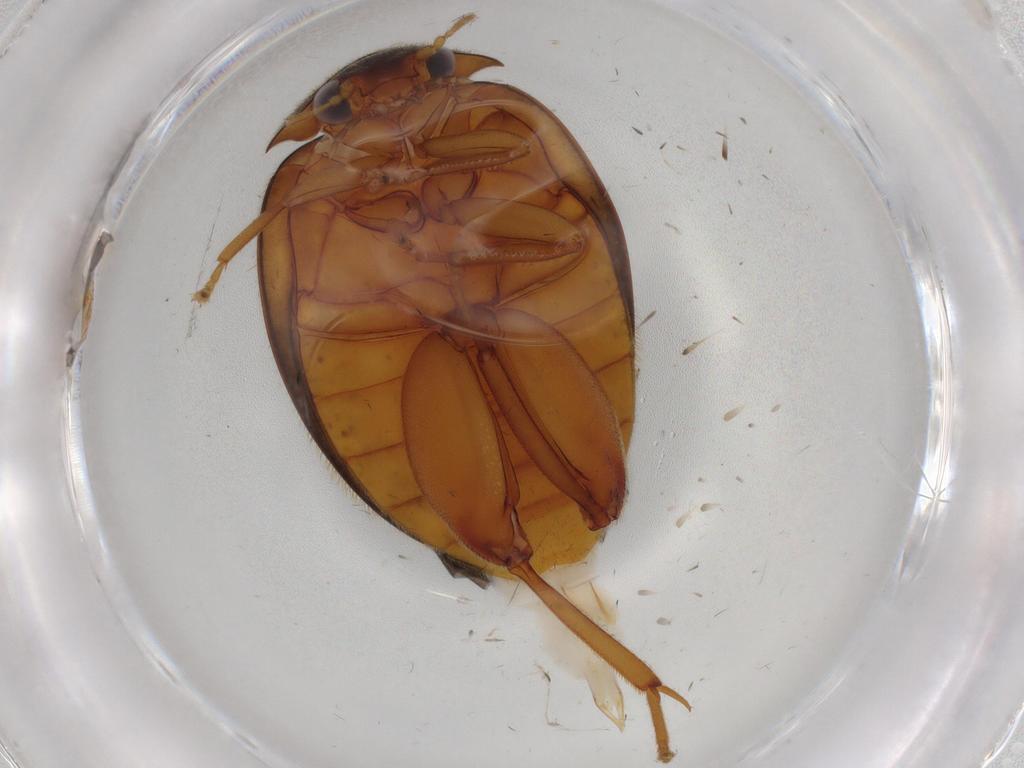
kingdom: Animalia
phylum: Arthropoda
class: Insecta
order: Coleoptera
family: Scirtidae
